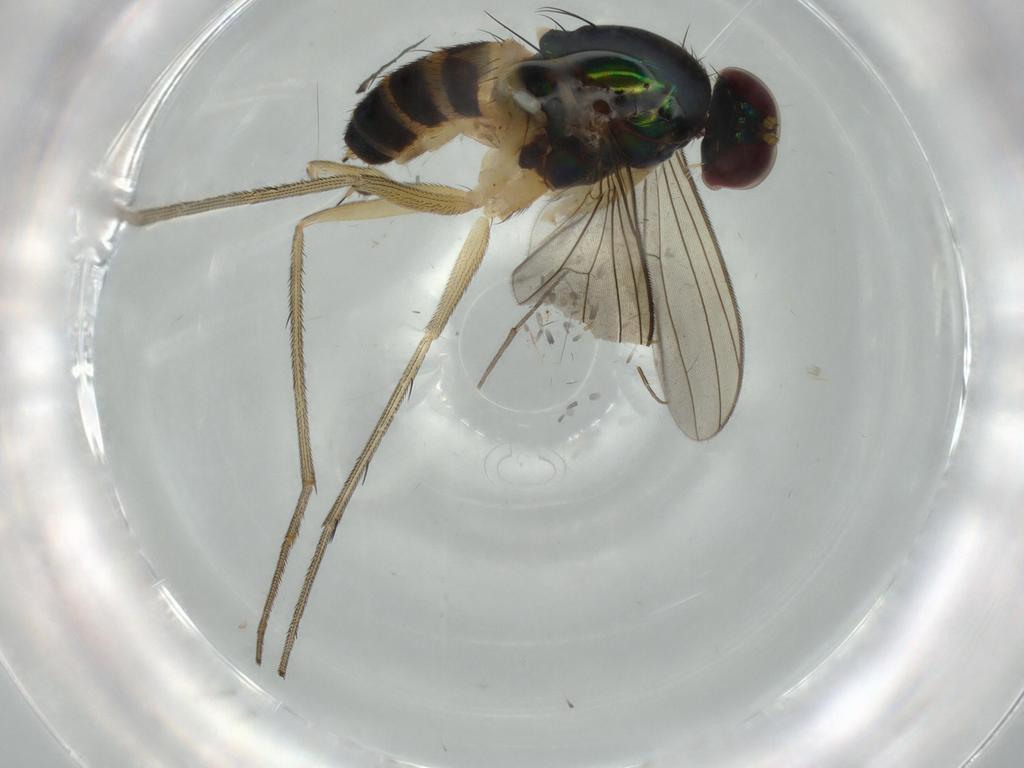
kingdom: Animalia
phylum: Arthropoda
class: Insecta
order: Diptera
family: Dolichopodidae
